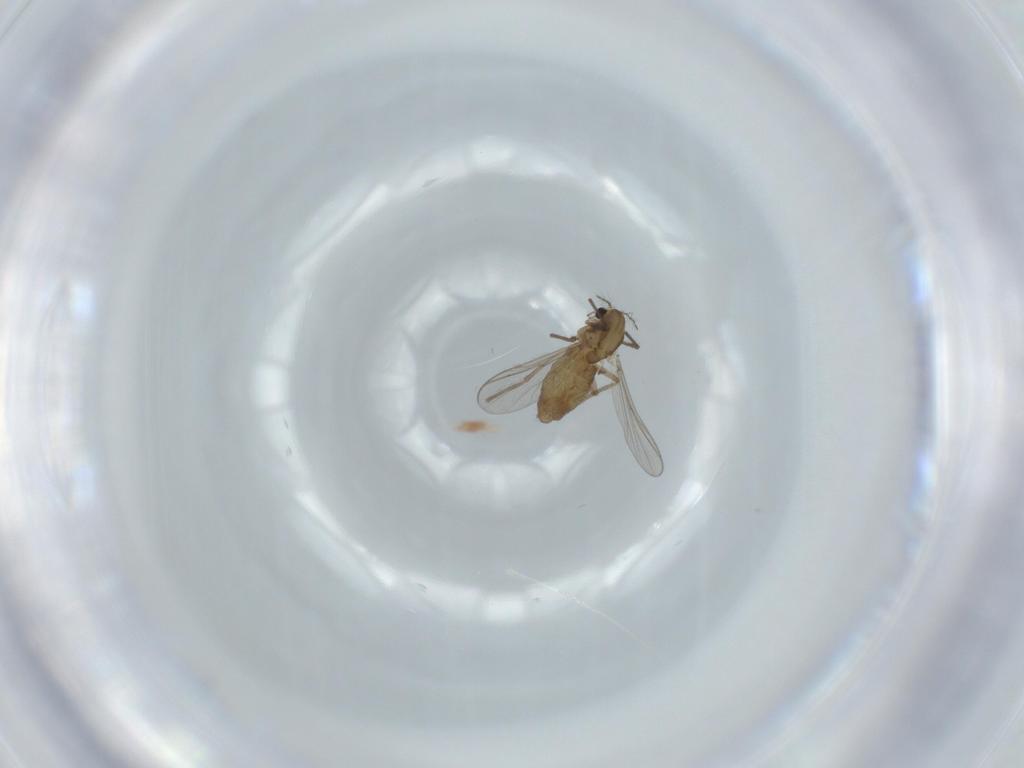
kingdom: Animalia
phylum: Arthropoda
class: Insecta
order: Diptera
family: Chironomidae
